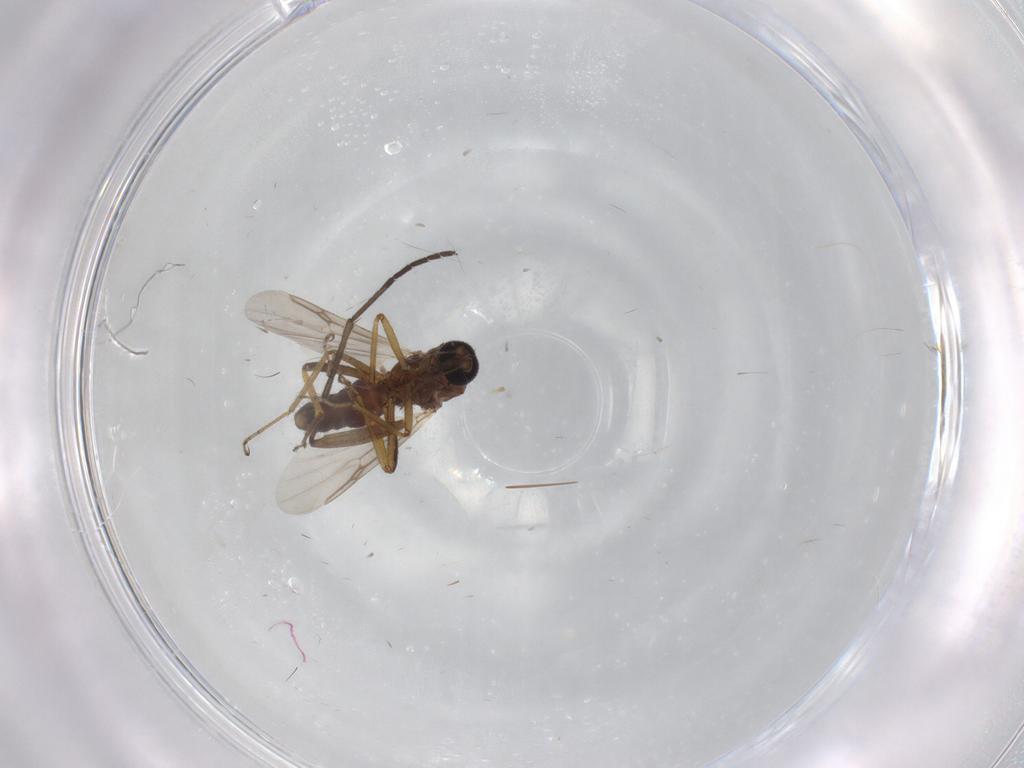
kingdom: Animalia
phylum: Arthropoda
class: Insecta
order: Diptera
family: Ceratopogonidae
